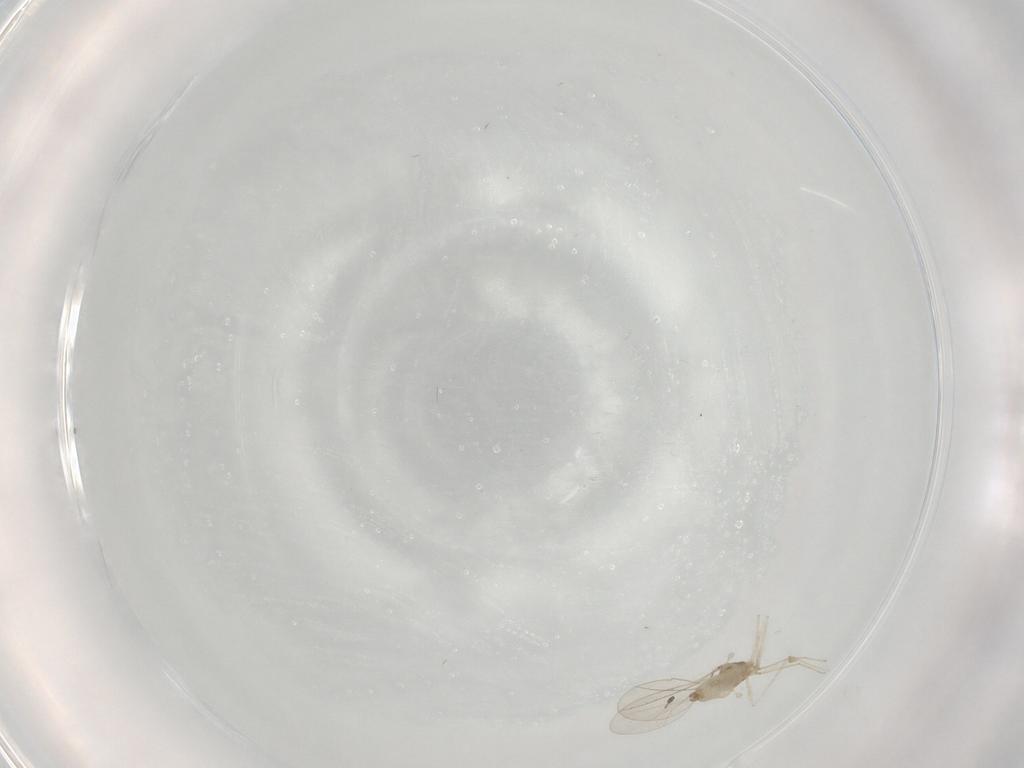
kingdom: Animalia
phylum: Arthropoda
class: Insecta
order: Diptera
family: Cecidomyiidae
